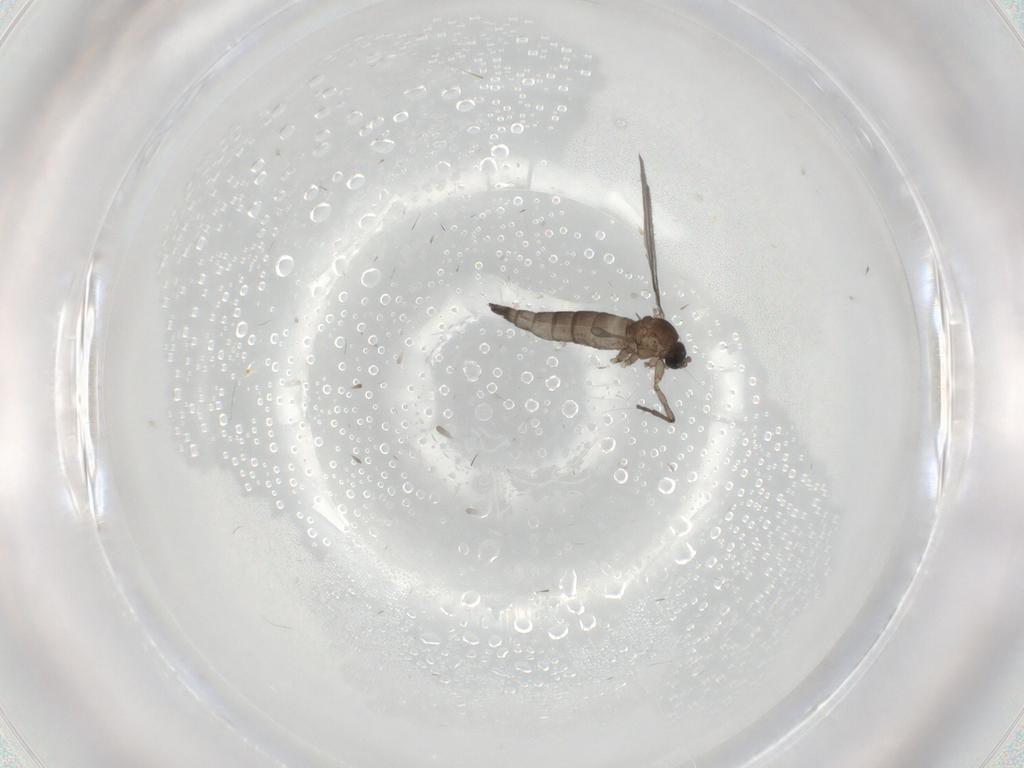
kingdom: Animalia
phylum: Arthropoda
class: Insecta
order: Diptera
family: Sciaridae
